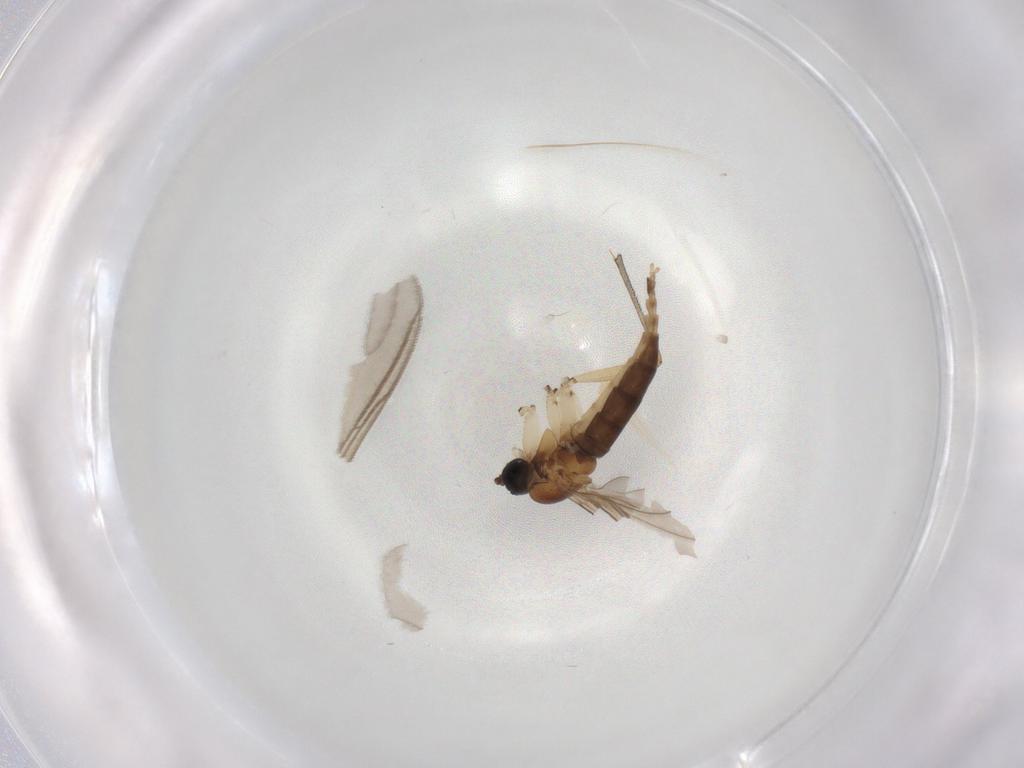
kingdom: Animalia
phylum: Arthropoda
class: Insecta
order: Diptera
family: Sciaridae
